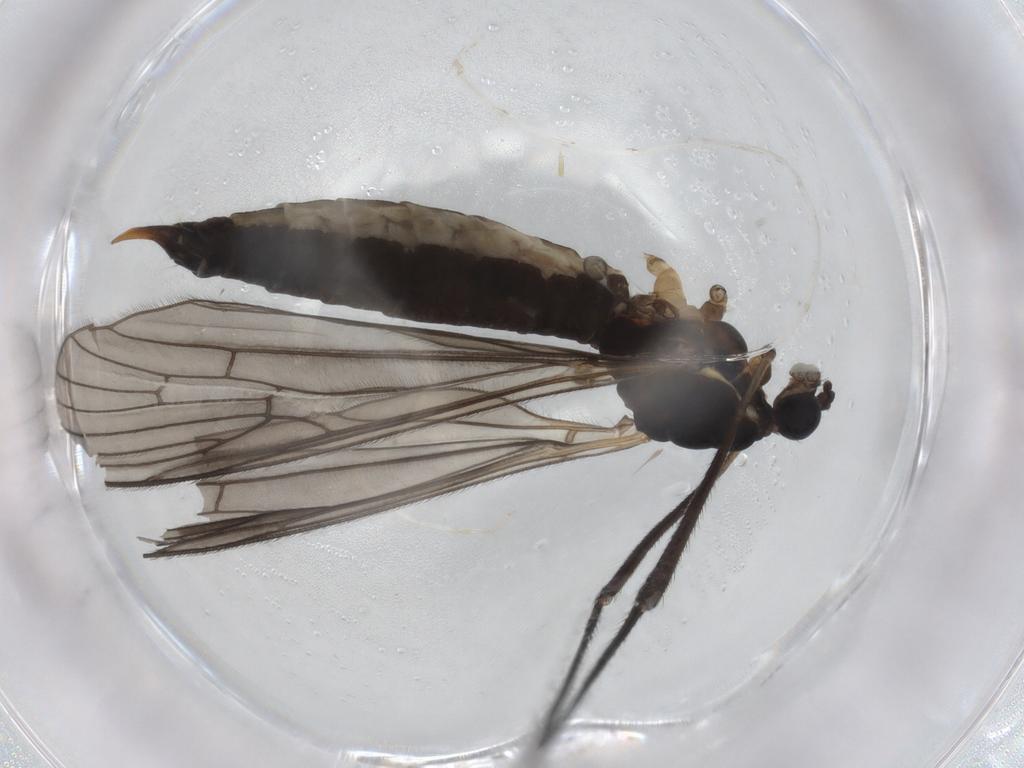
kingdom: Animalia
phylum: Arthropoda
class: Insecta
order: Diptera
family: Limoniidae
